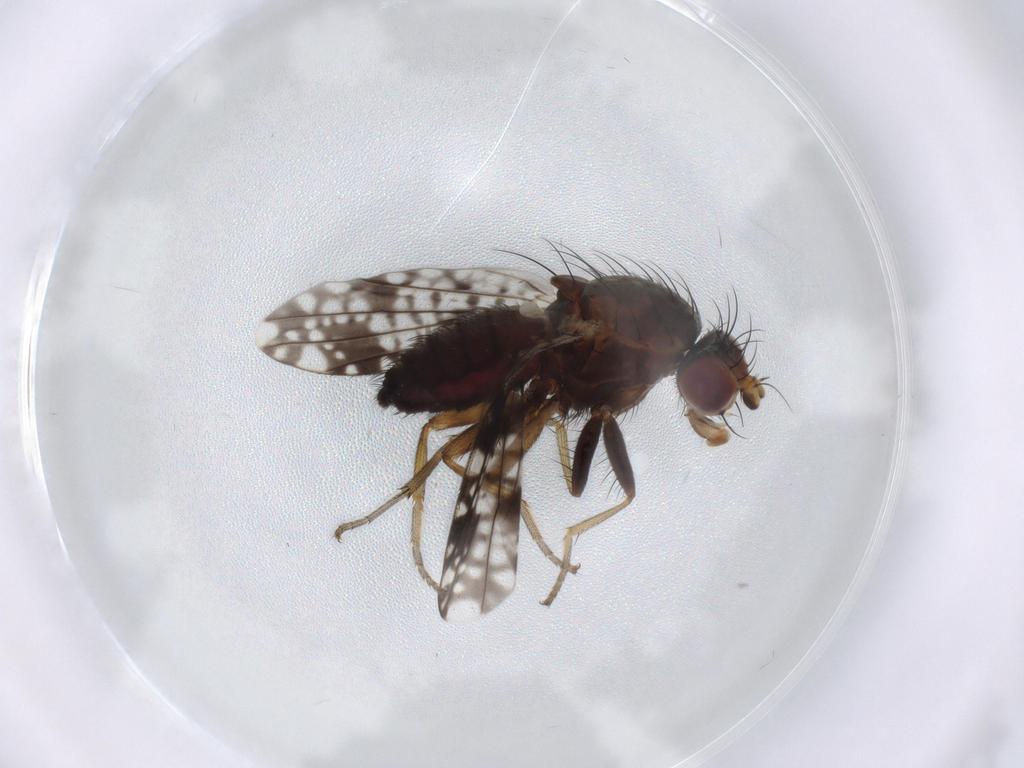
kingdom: Animalia
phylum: Arthropoda
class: Insecta
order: Diptera
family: Tephritidae
